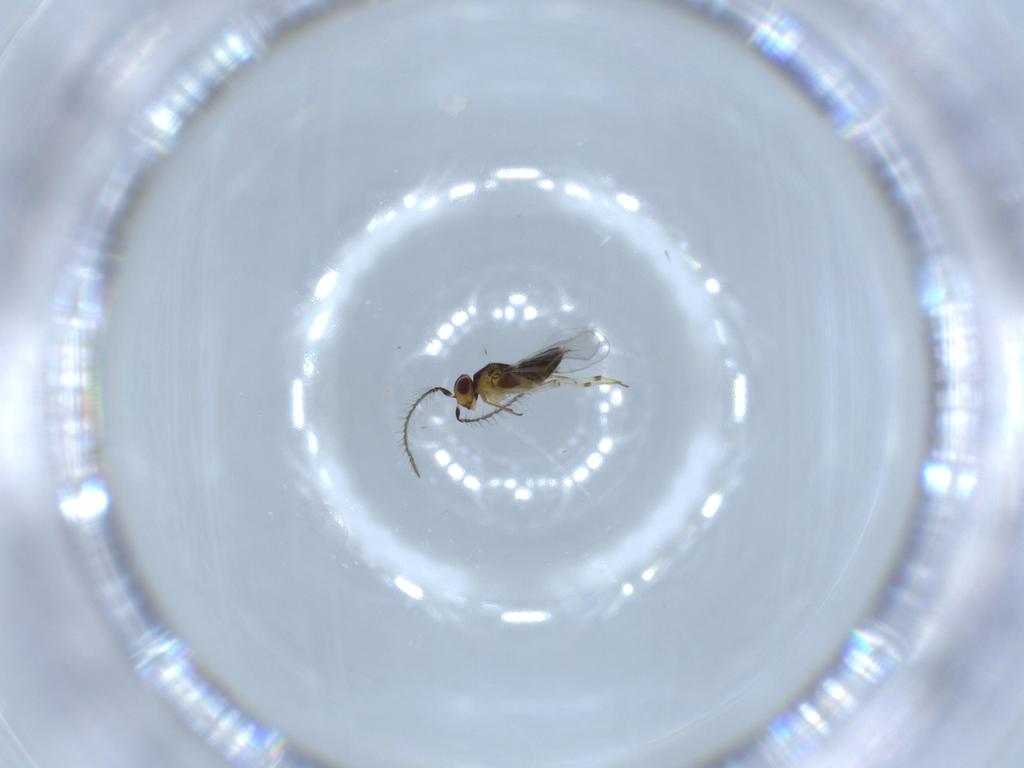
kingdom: Animalia
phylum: Arthropoda
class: Insecta
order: Hymenoptera
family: Encyrtidae
